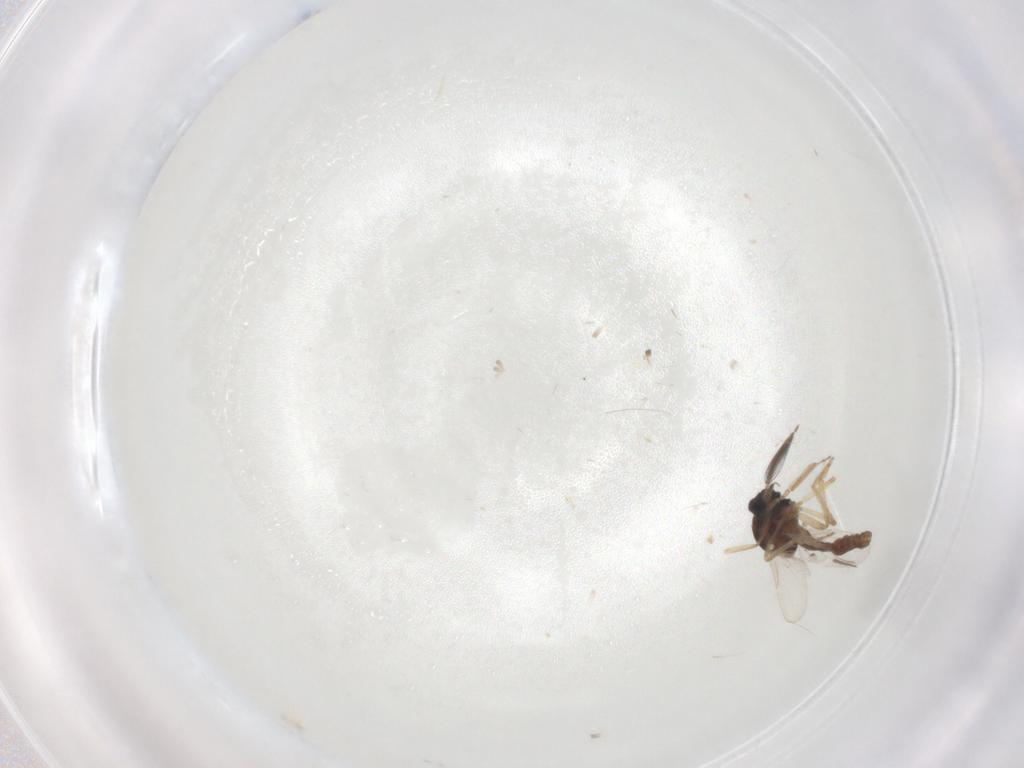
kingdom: Animalia
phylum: Arthropoda
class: Insecta
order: Diptera
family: Ceratopogonidae
